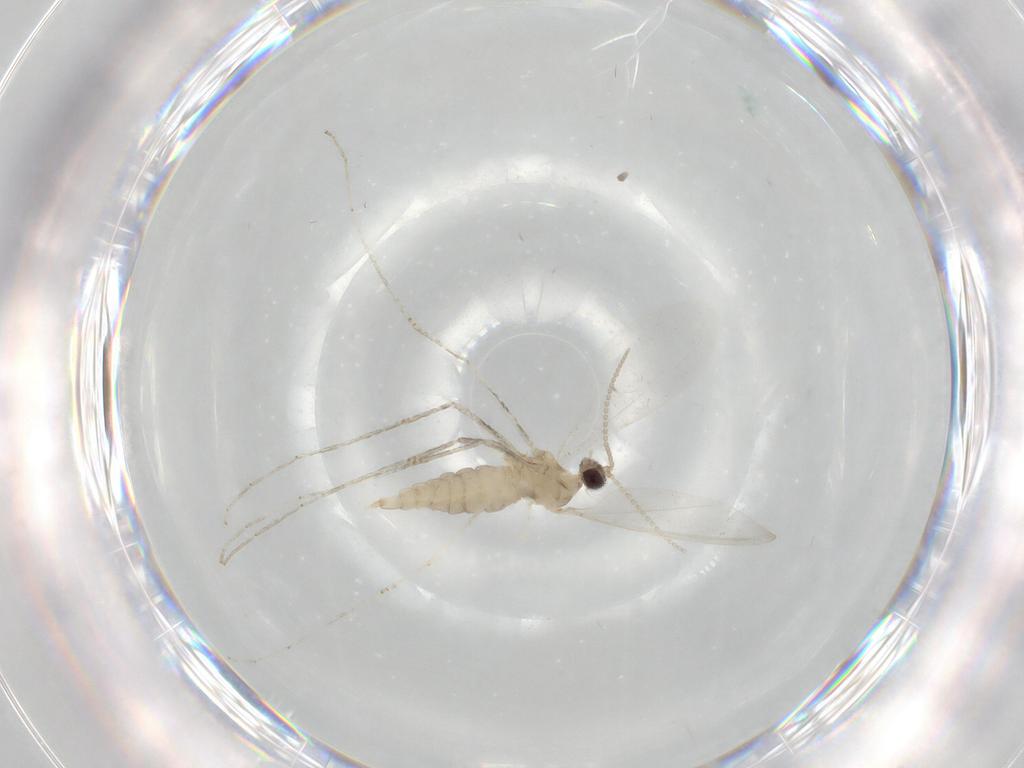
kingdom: Animalia
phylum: Arthropoda
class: Insecta
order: Diptera
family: Cecidomyiidae
